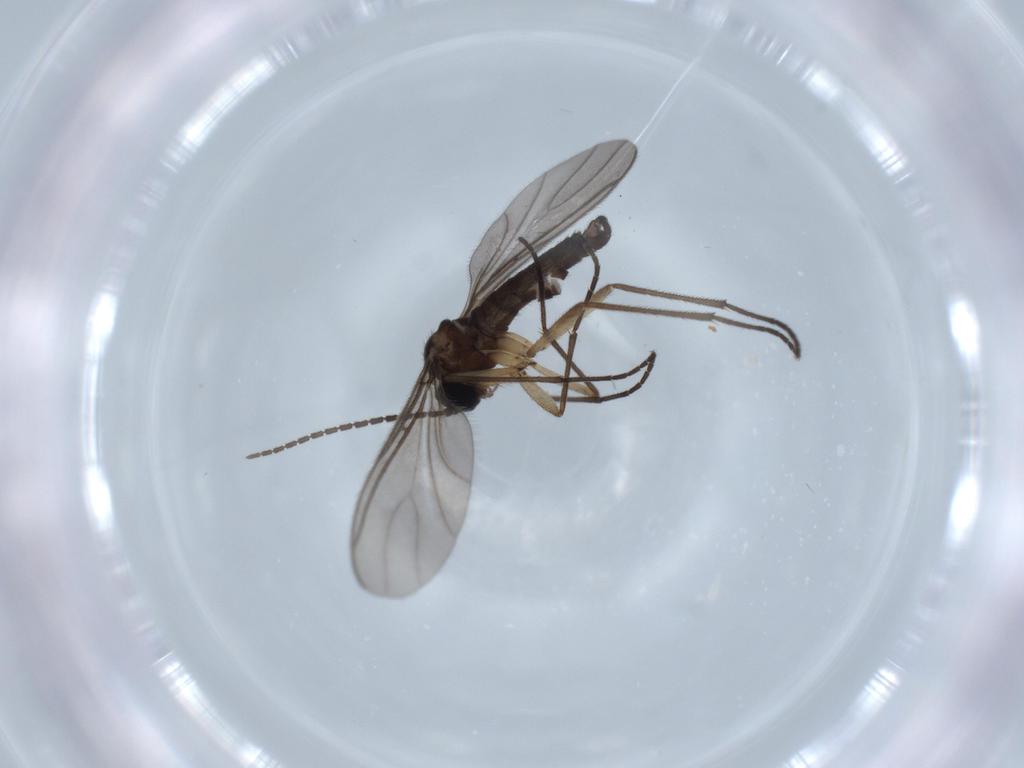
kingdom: Animalia
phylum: Arthropoda
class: Insecta
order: Diptera
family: Sciaridae
